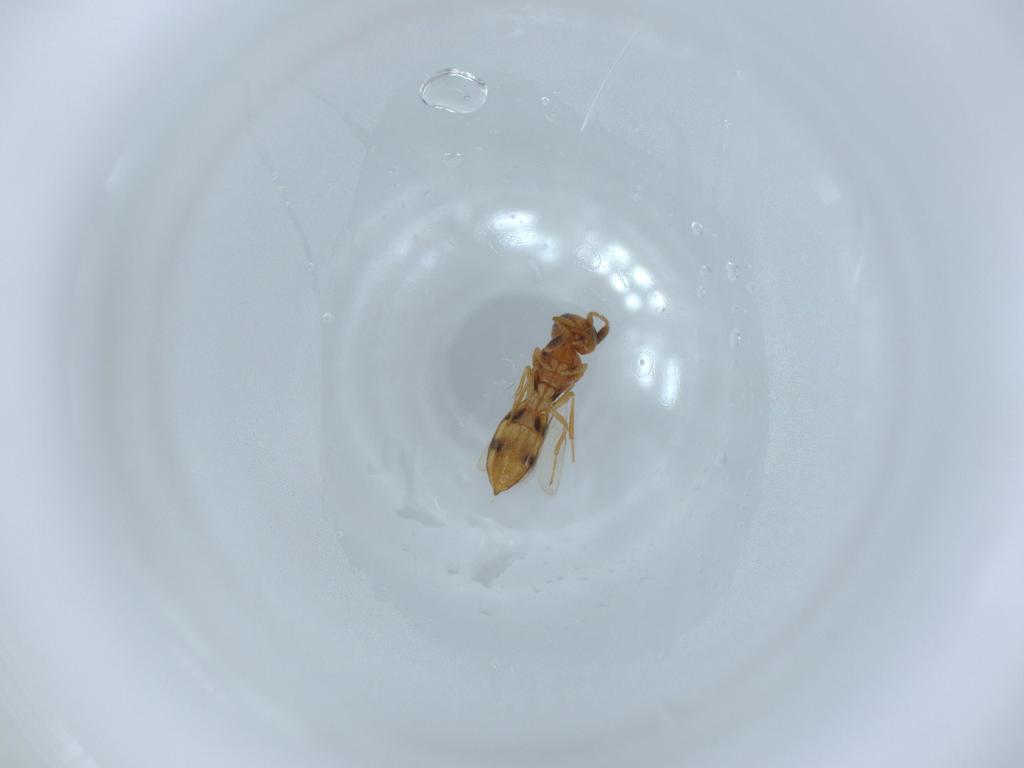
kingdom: Animalia
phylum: Arthropoda
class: Insecta
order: Hymenoptera
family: Scelionidae
